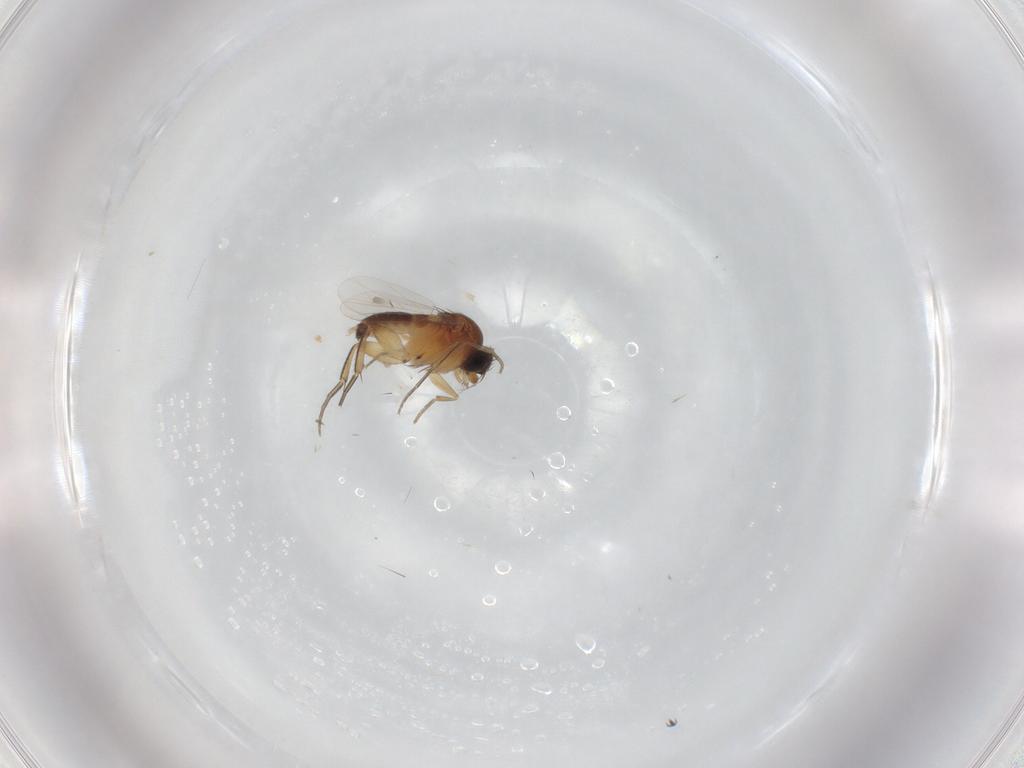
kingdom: Animalia
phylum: Arthropoda
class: Insecta
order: Diptera
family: Phoridae
